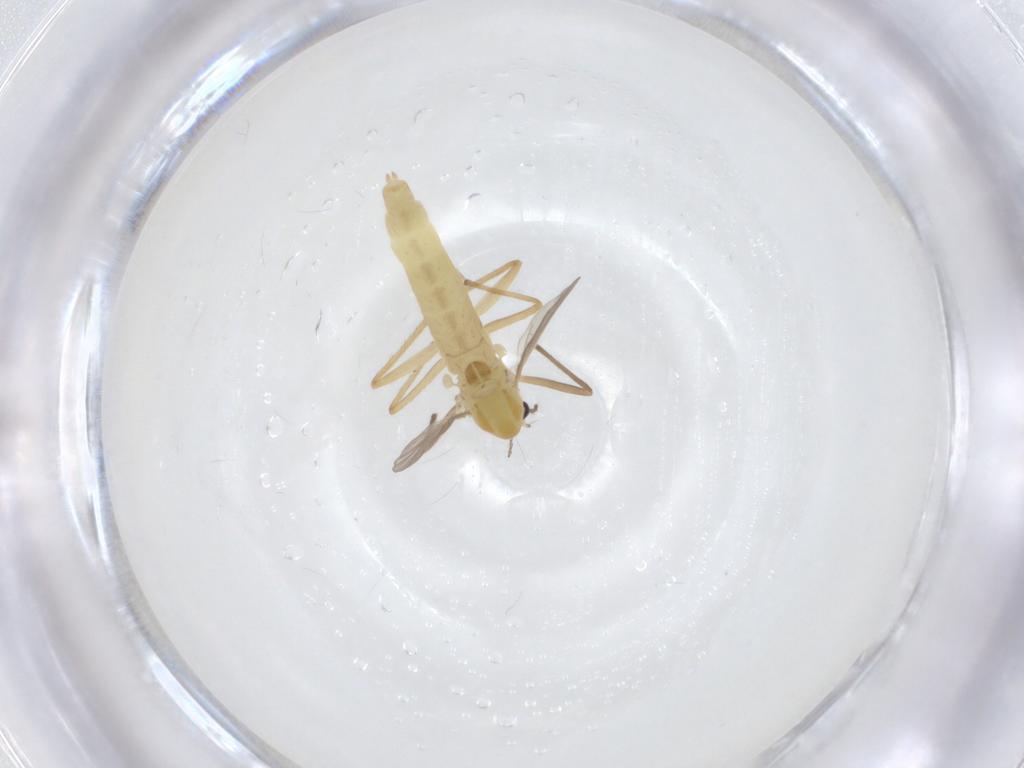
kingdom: Animalia
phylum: Arthropoda
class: Insecta
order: Diptera
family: Chironomidae
